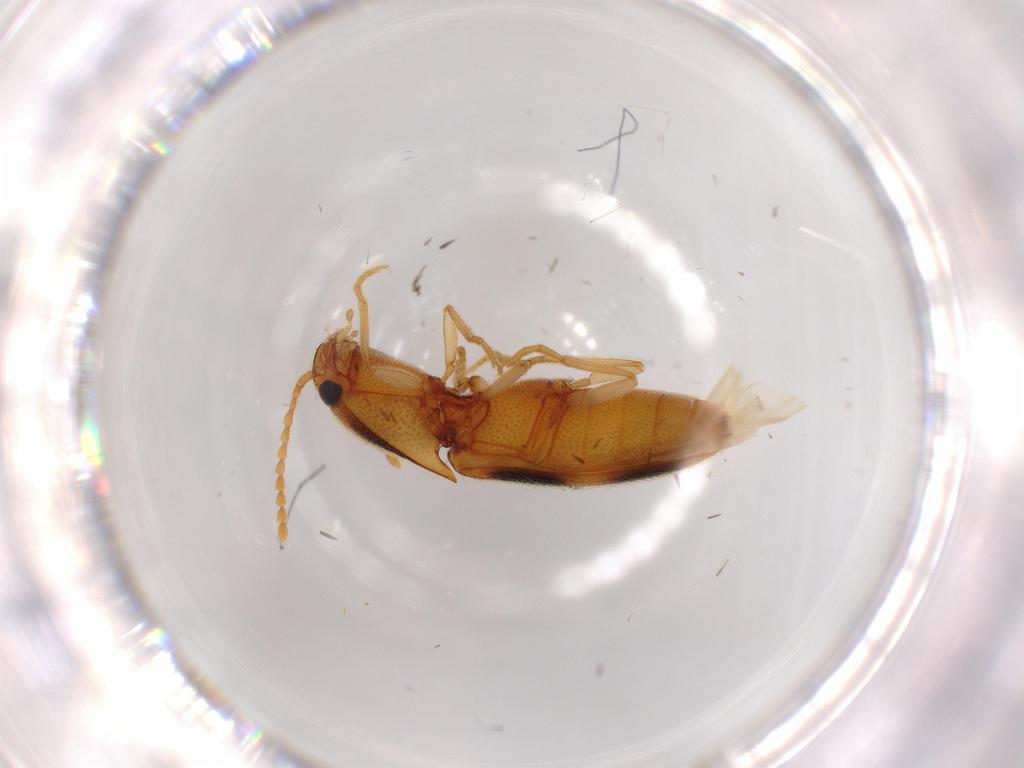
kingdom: Animalia
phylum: Arthropoda
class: Insecta
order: Coleoptera
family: Elateridae
